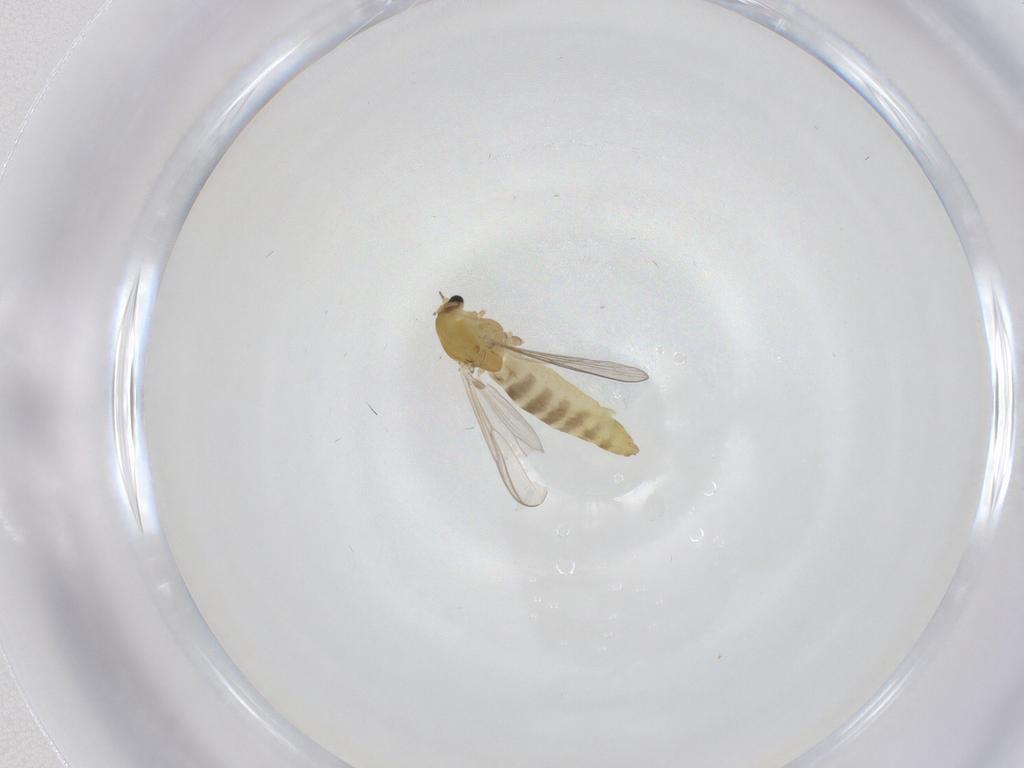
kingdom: Animalia
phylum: Arthropoda
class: Insecta
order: Diptera
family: Chironomidae
